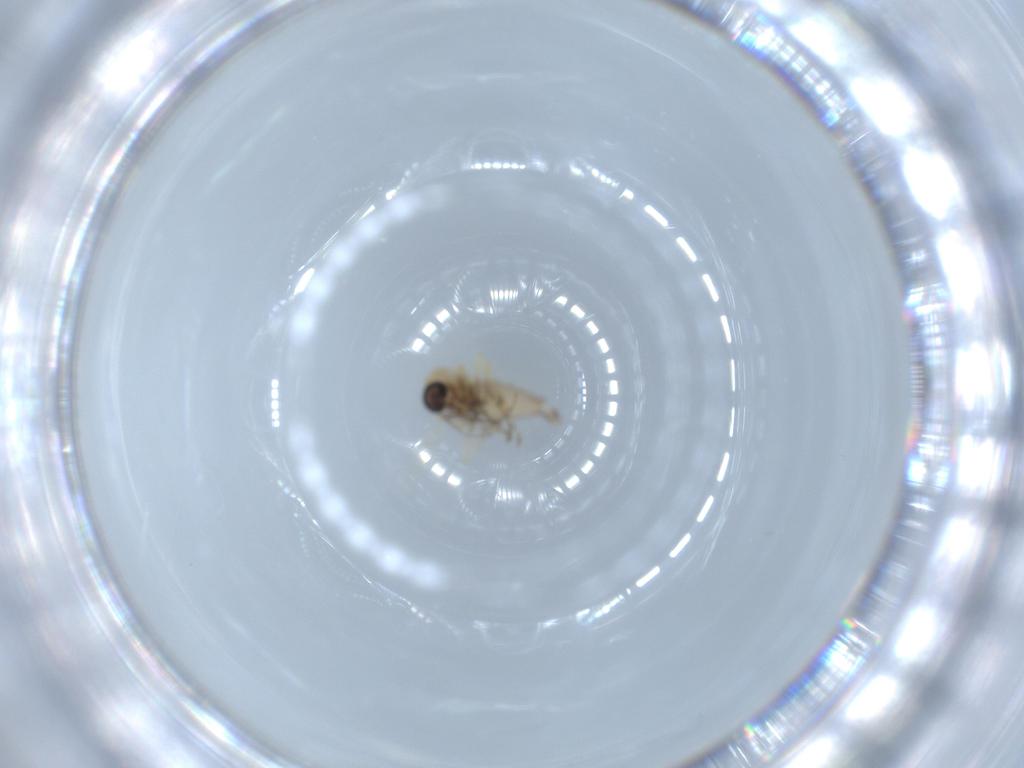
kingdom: Animalia
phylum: Arthropoda
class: Insecta
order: Diptera
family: Ceratopogonidae
